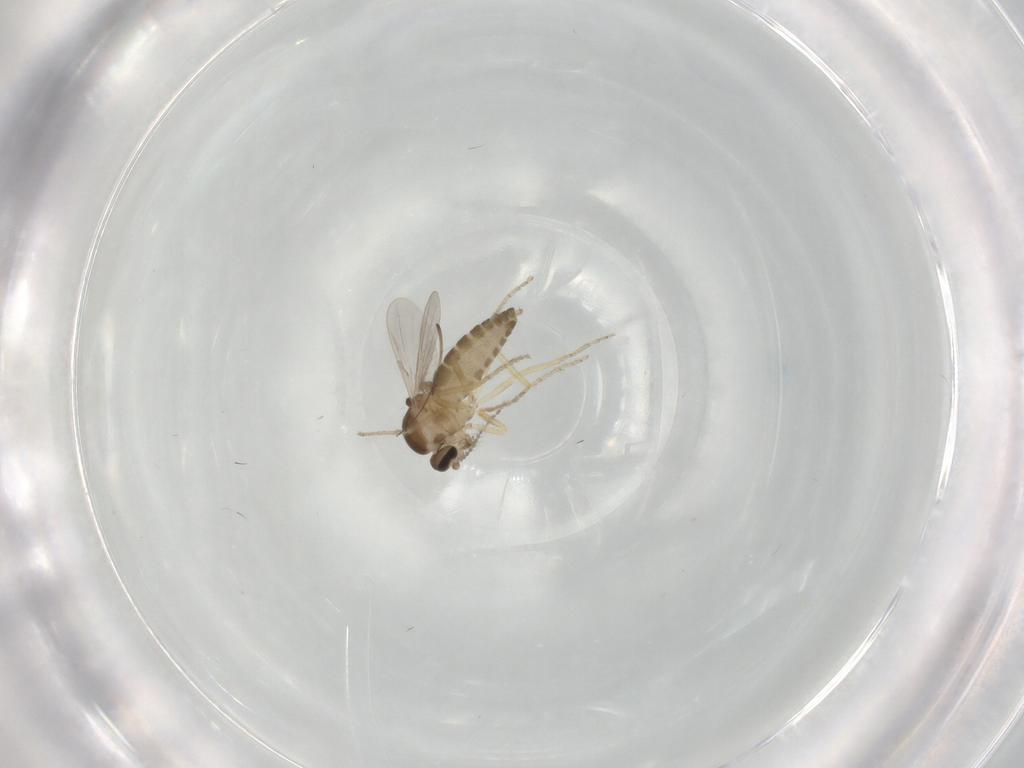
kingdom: Animalia
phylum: Arthropoda
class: Insecta
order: Diptera
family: Ceratopogonidae
